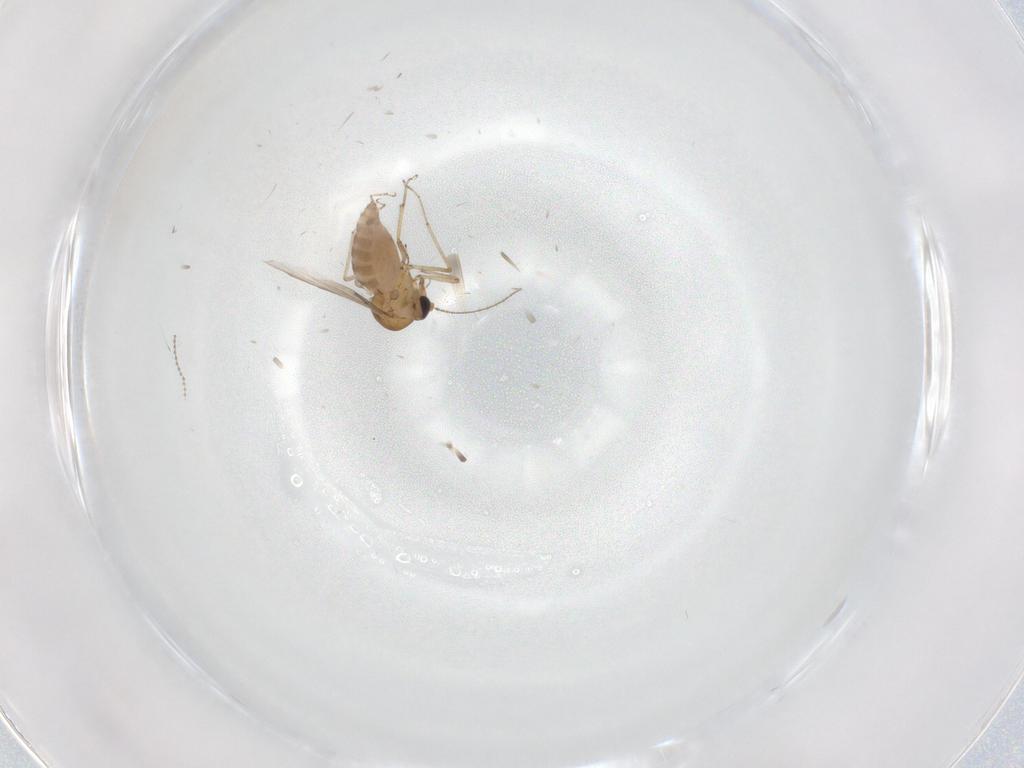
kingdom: Animalia
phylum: Arthropoda
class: Insecta
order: Diptera
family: Ceratopogonidae
